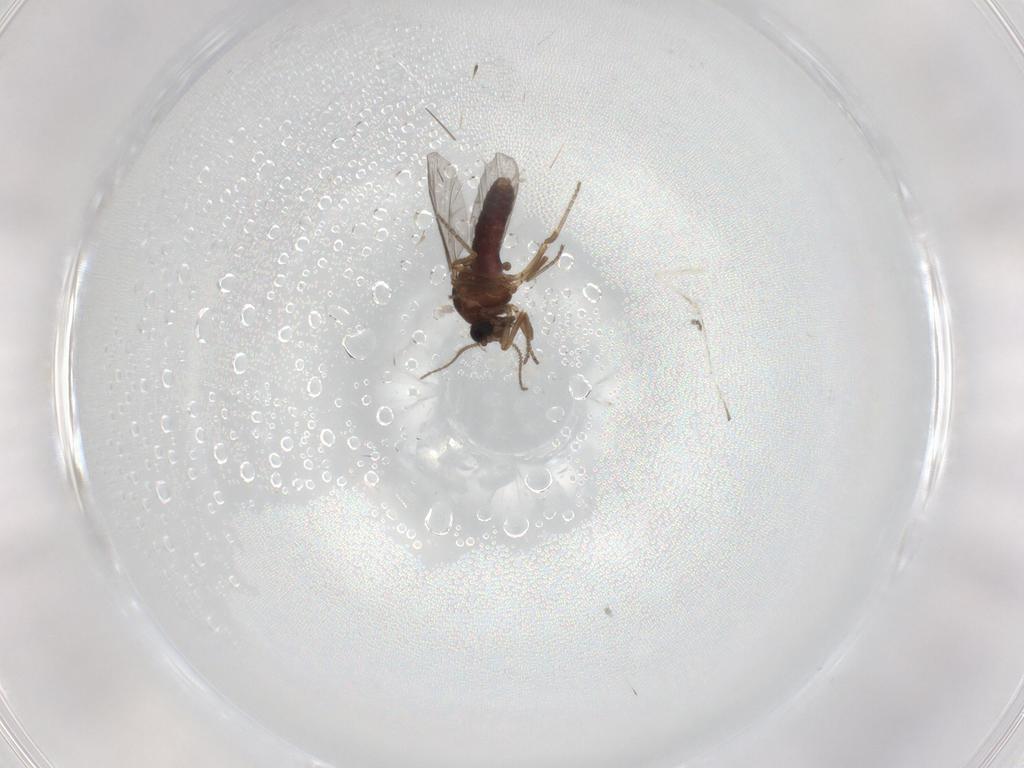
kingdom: Animalia
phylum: Arthropoda
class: Insecta
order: Diptera
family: Ceratopogonidae
